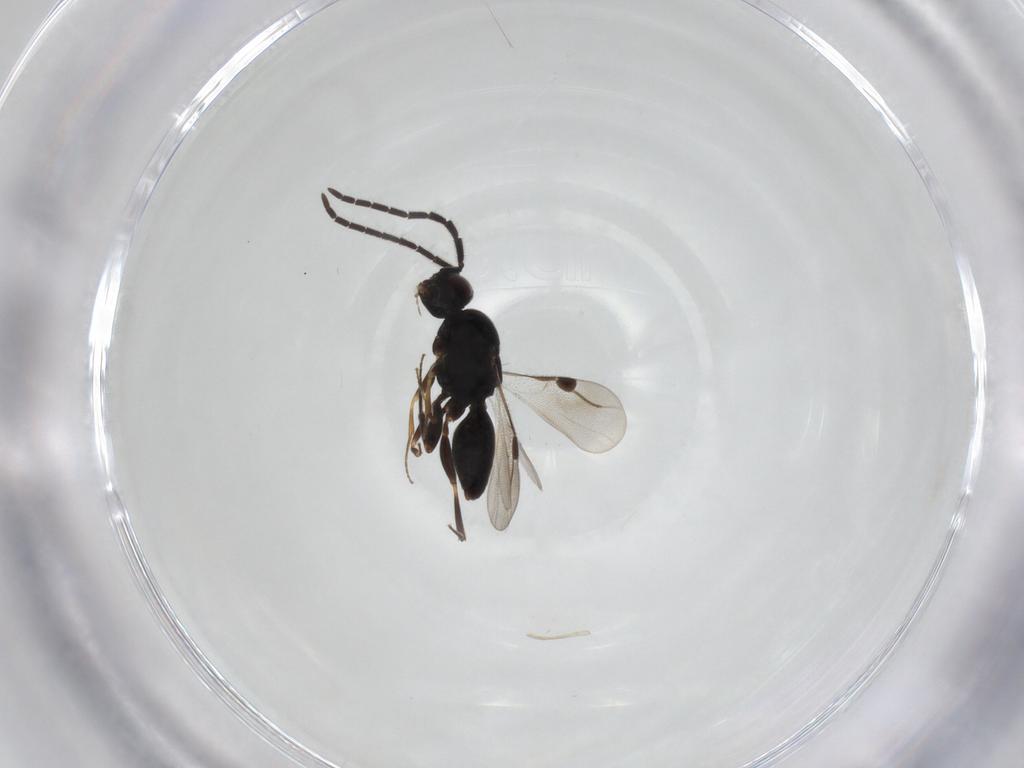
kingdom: Animalia
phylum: Arthropoda
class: Insecta
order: Hymenoptera
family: Megaspilidae
